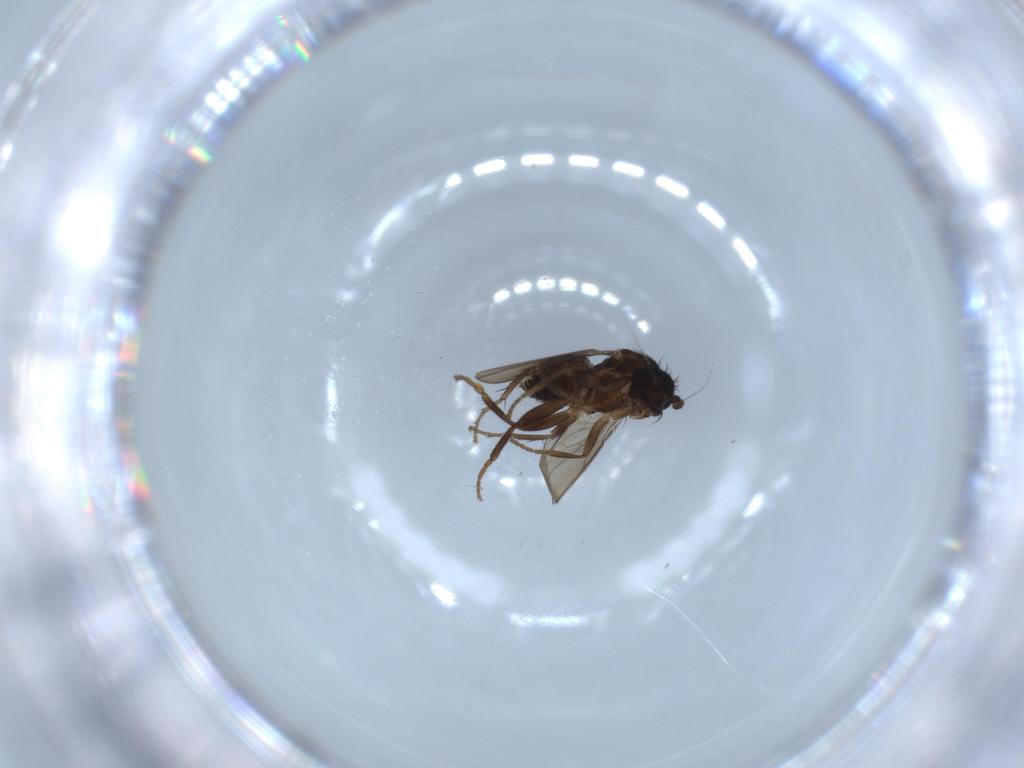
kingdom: Animalia
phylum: Arthropoda
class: Insecta
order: Diptera
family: Sphaeroceridae
